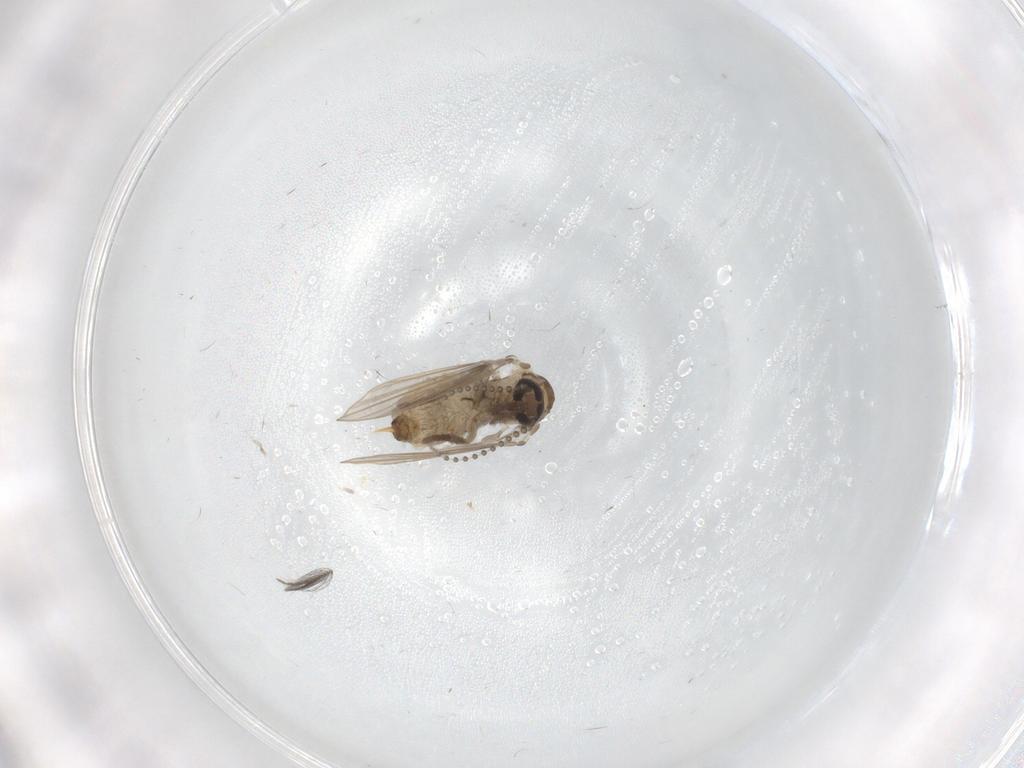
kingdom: Animalia
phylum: Arthropoda
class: Insecta
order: Diptera
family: Psychodidae
